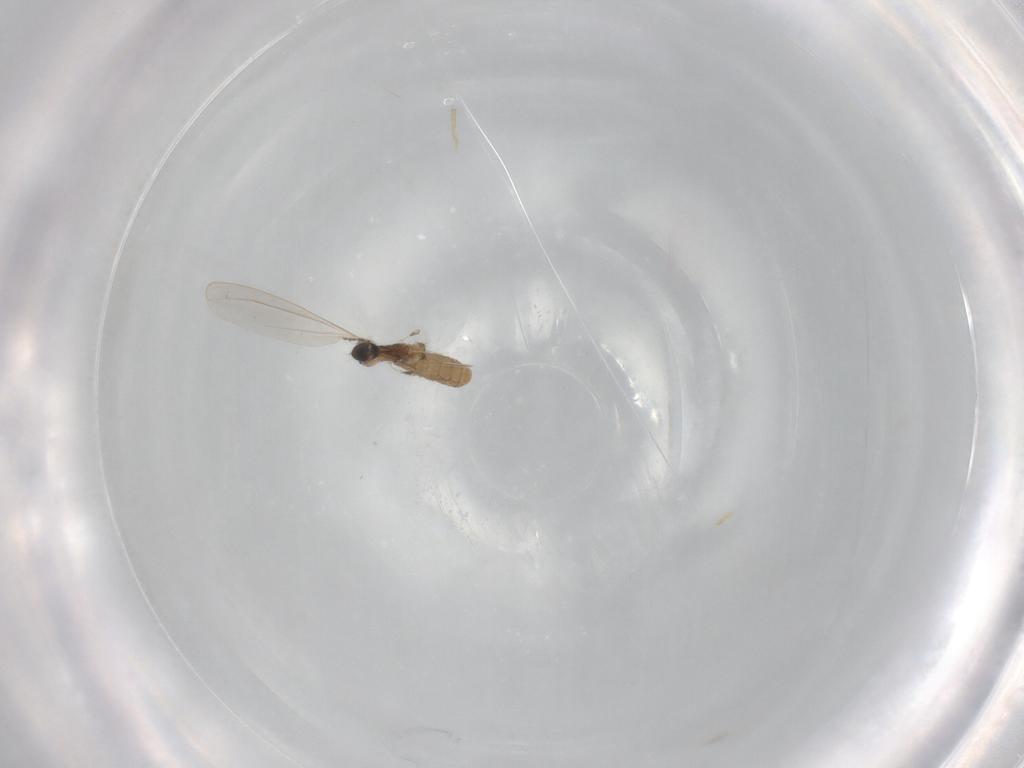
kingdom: Animalia
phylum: Arthropoda
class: Insecta
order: Diptera
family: Cecidomyiidae
